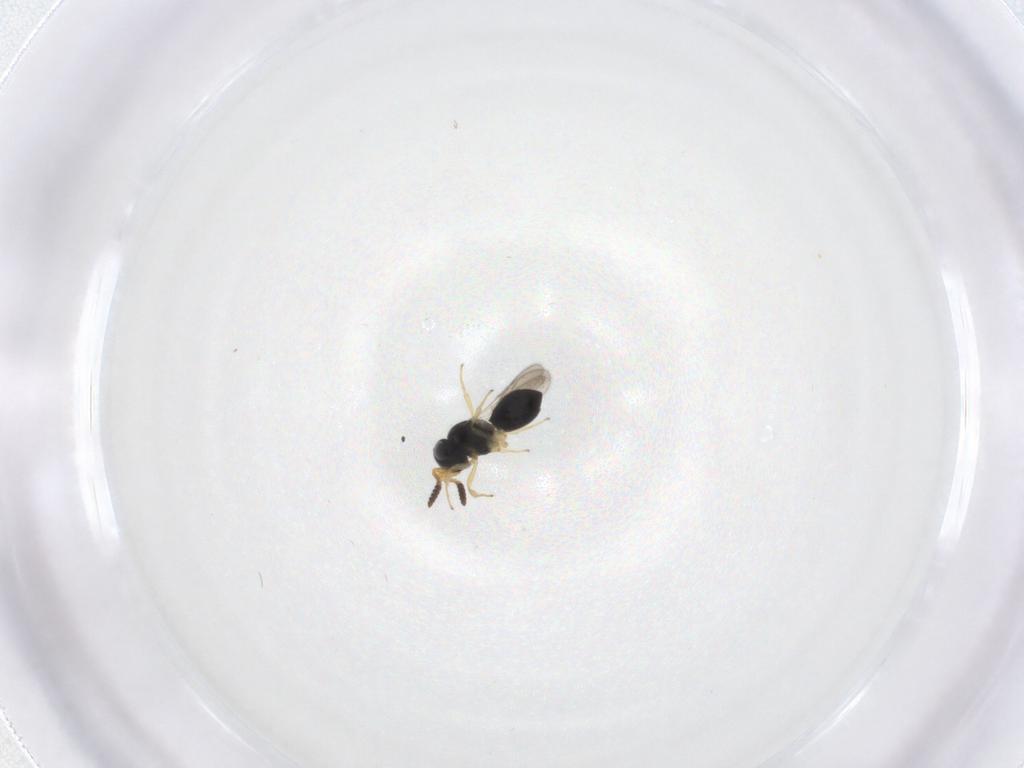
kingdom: Animalia
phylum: Arthropoda
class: Insecta
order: Hymenoptera
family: Scelionidae
